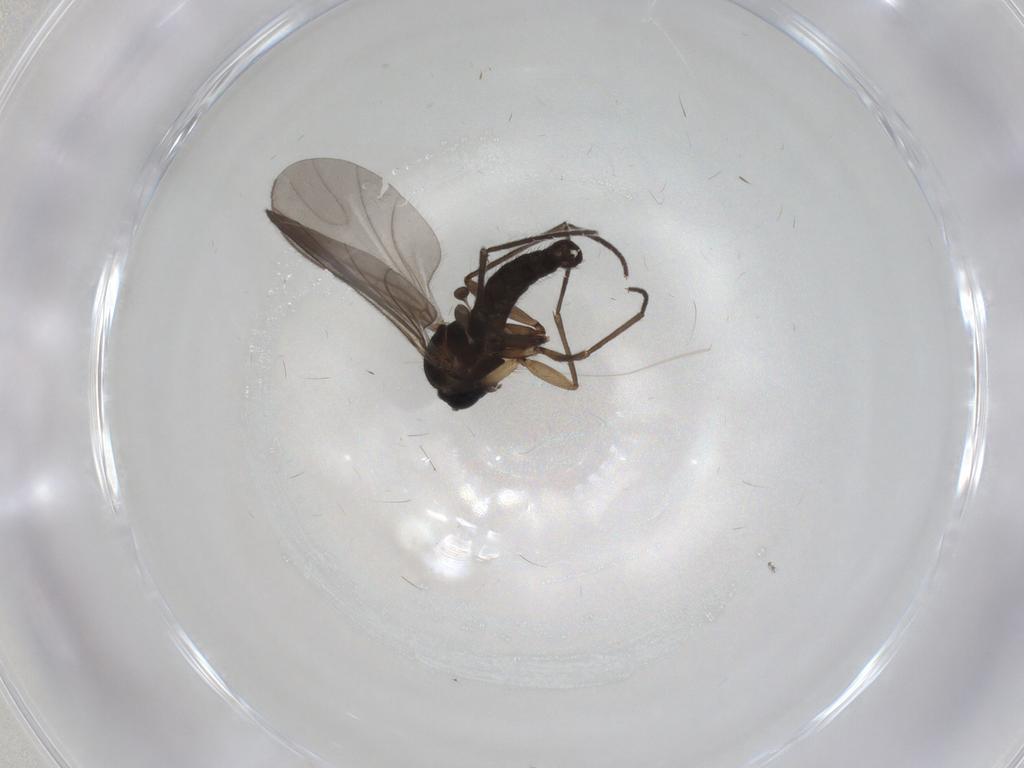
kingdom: Animalia
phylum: Arthropoda
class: Insecta
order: Diptera
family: Sciaridae
